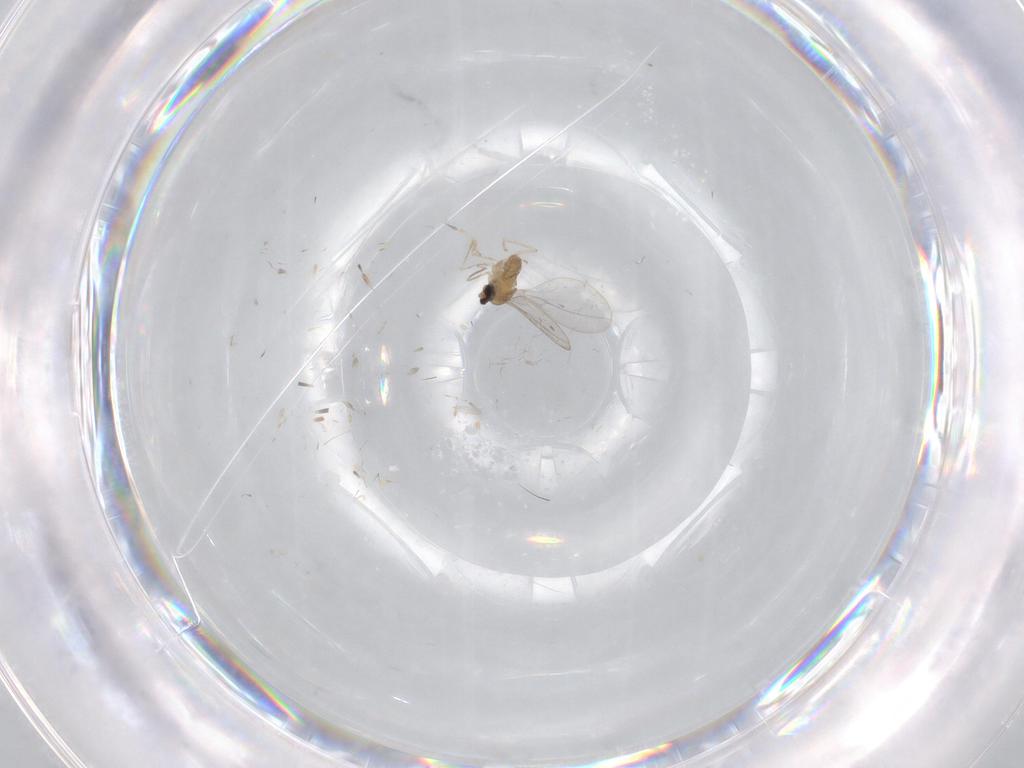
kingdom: Animalia
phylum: Arthropoda
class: Insecta
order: Diptera
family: Cecidomyiidae
